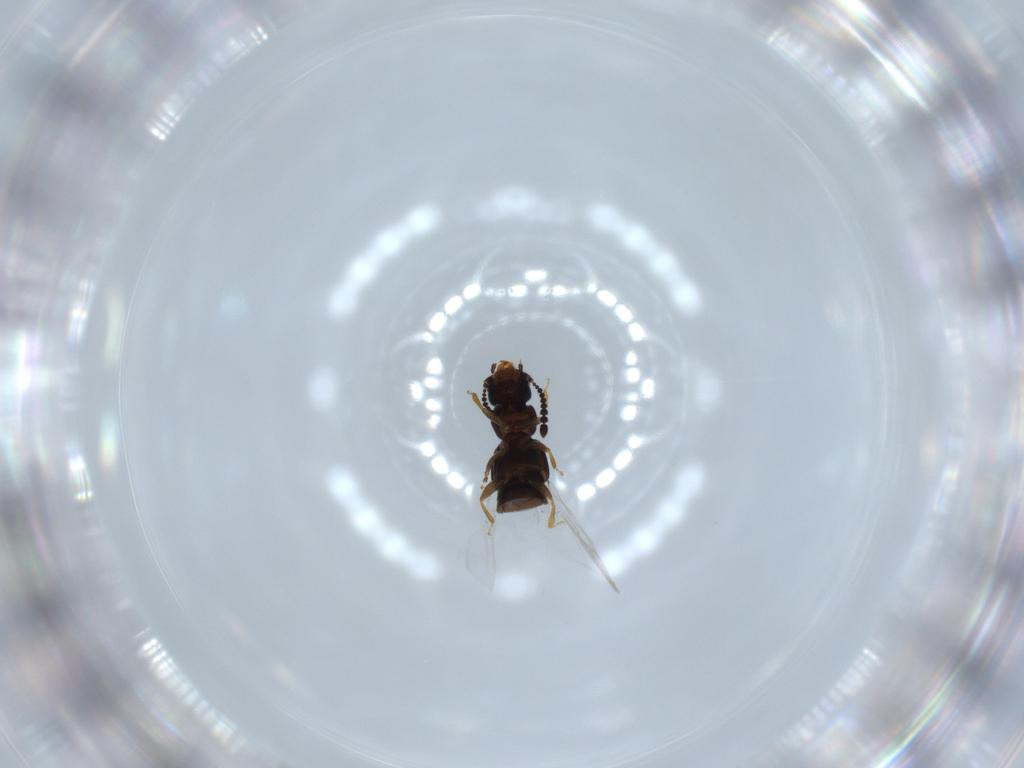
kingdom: Animalia
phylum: Arthropoda
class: Insecta
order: Coleoptera
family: Staphylinidae
